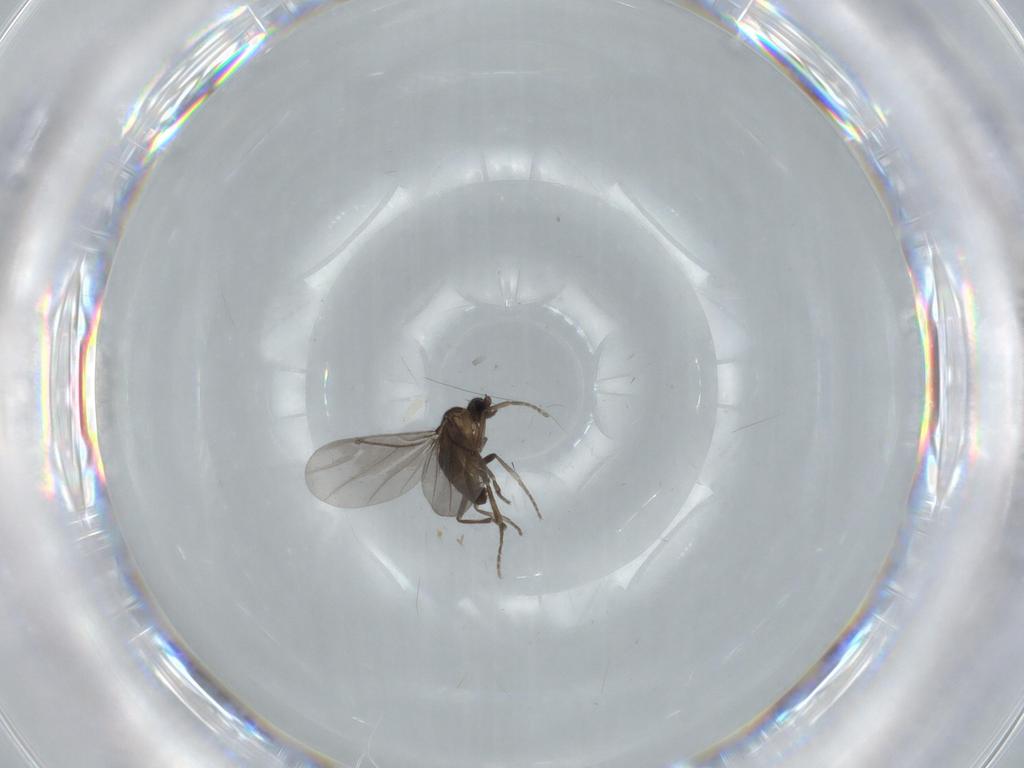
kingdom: Animalia
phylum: Arthropoda
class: Insecta
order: Diptera
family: Phoridae
